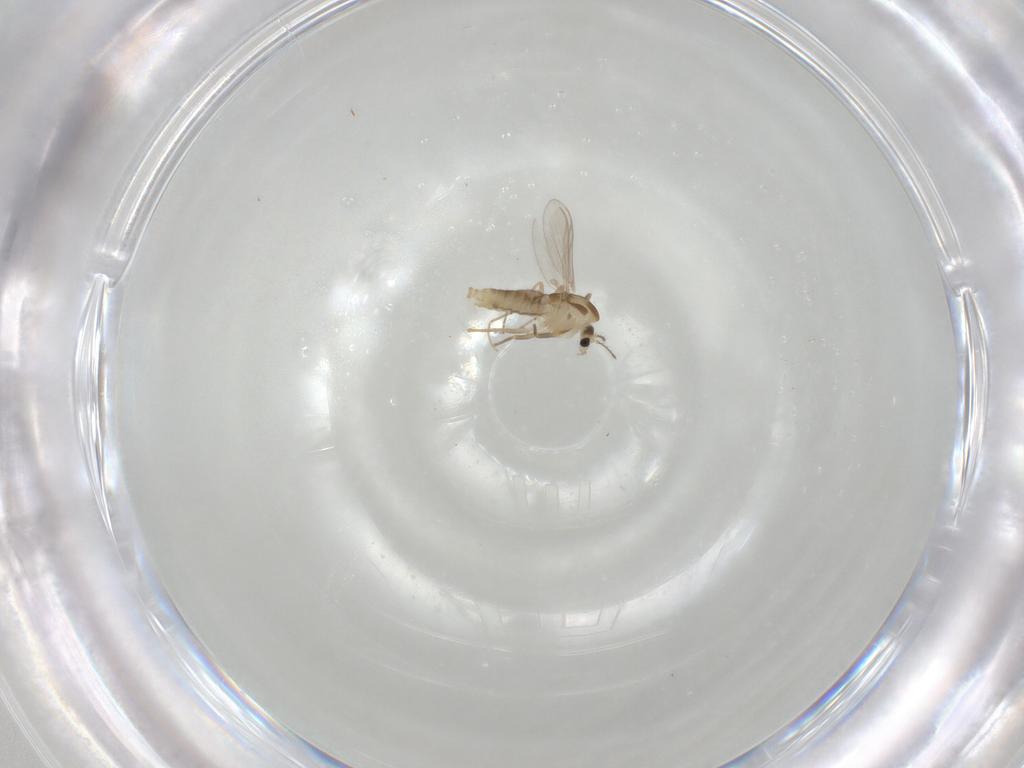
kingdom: Animalia
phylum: Arthropoda
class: Insecta
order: Diptera
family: Chironomidae
